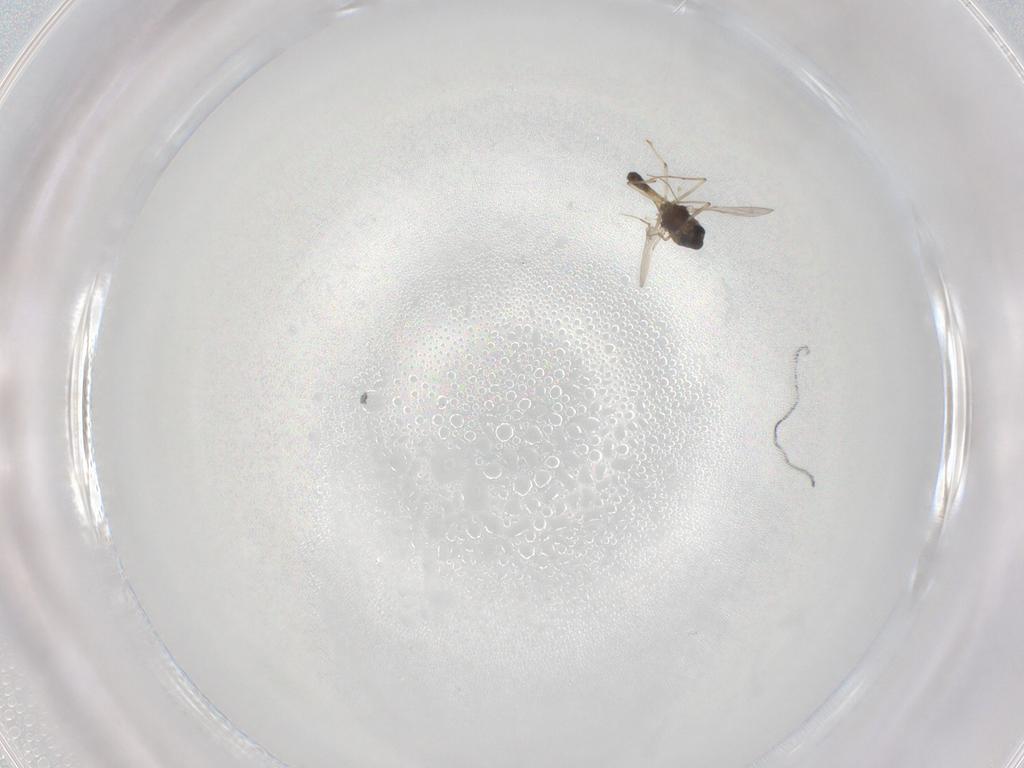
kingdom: Animalia
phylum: Arthropoda
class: Insecta
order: Diptera
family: Chironomidae
